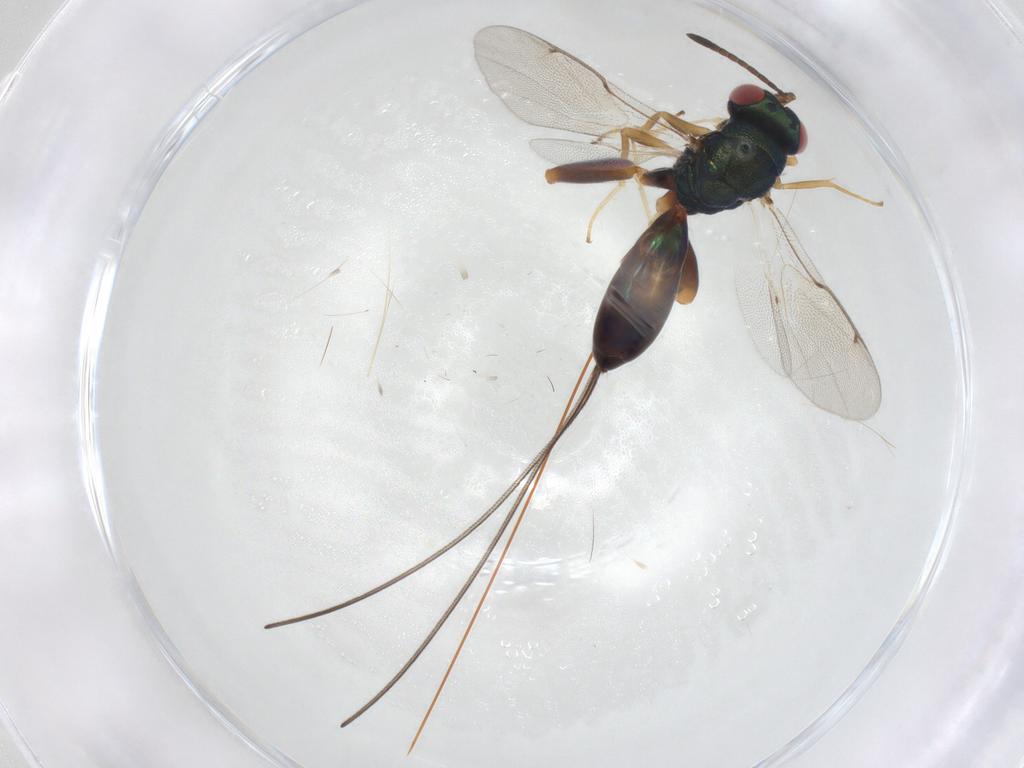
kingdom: Animalia
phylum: Arthropoda
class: Insecta
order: Hymenoptera
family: Torymidae
